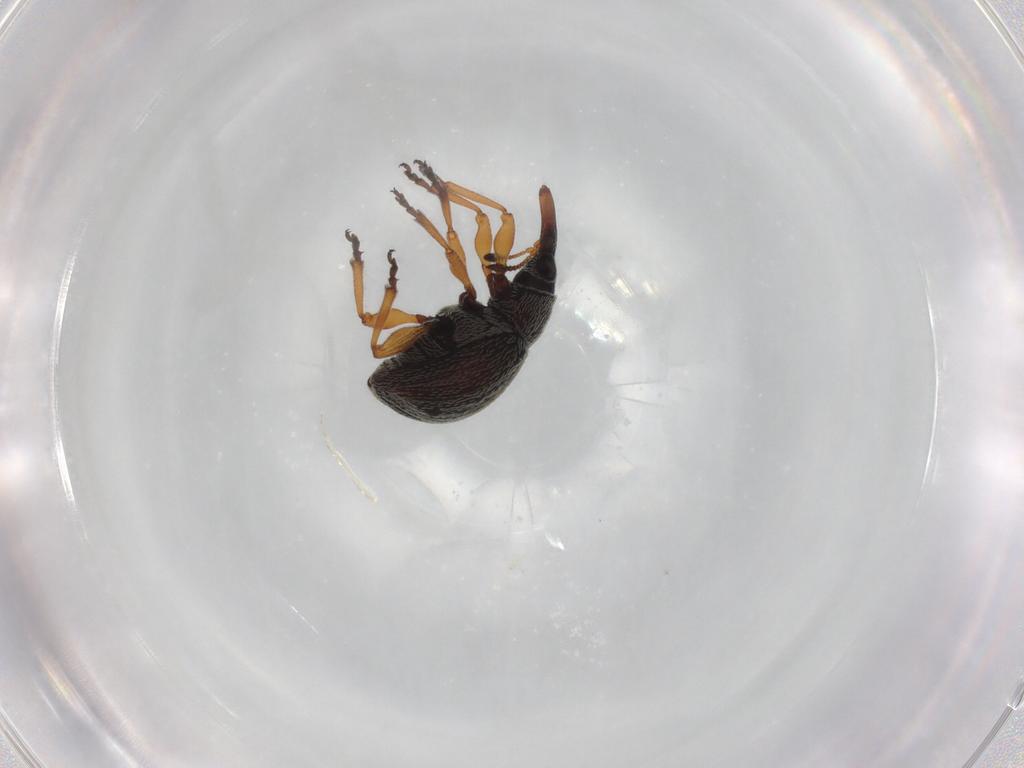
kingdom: Animalia
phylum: Arthropoda
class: Insecta
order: Coleoptera
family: Brentidae
